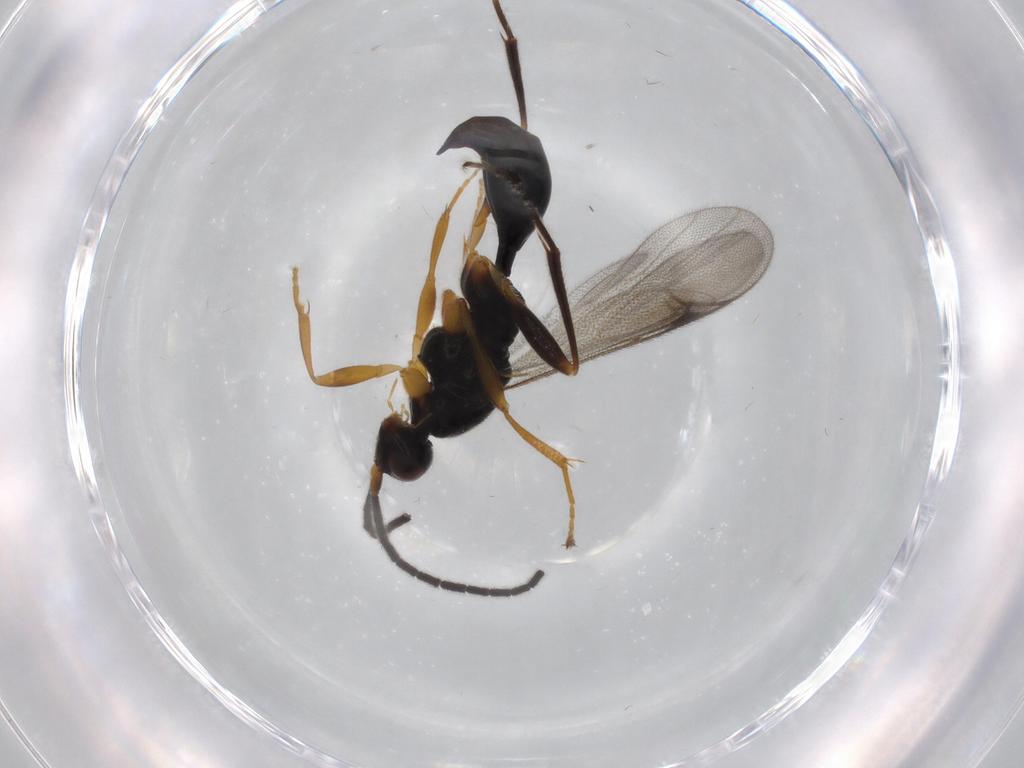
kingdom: Animalia
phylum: Arthropoda
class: Insecta
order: Hymenoptera
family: Proctotrupidae
